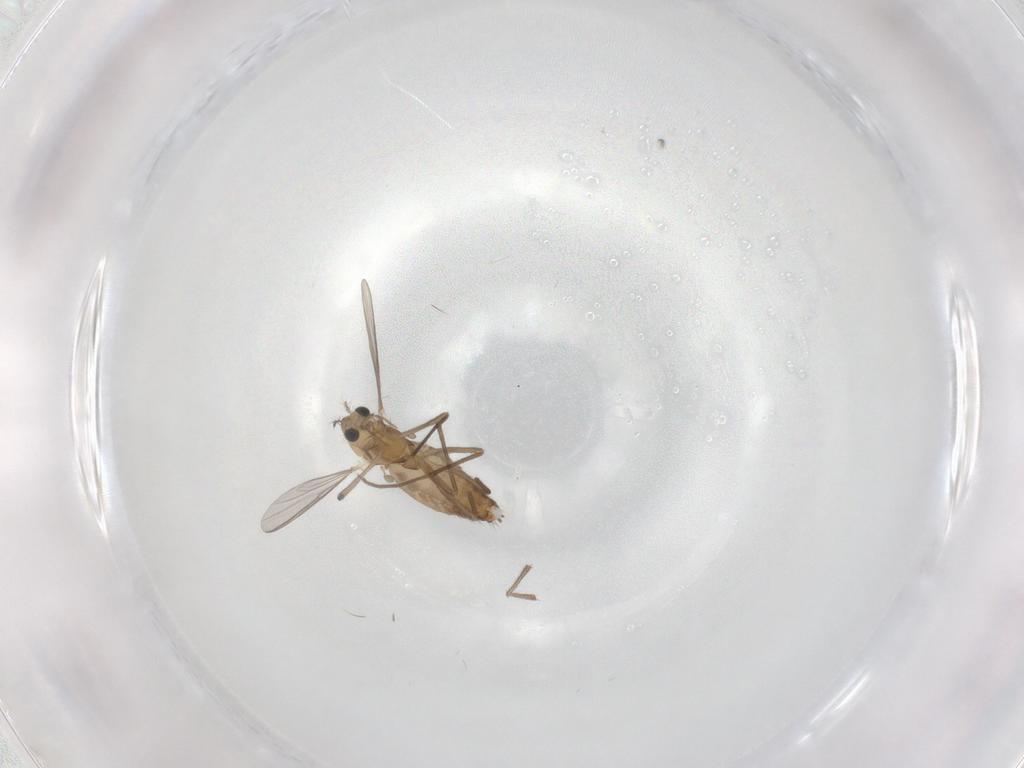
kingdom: Animalia
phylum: Arthropoda
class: Insecta
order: Diptera
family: Chironomidae
